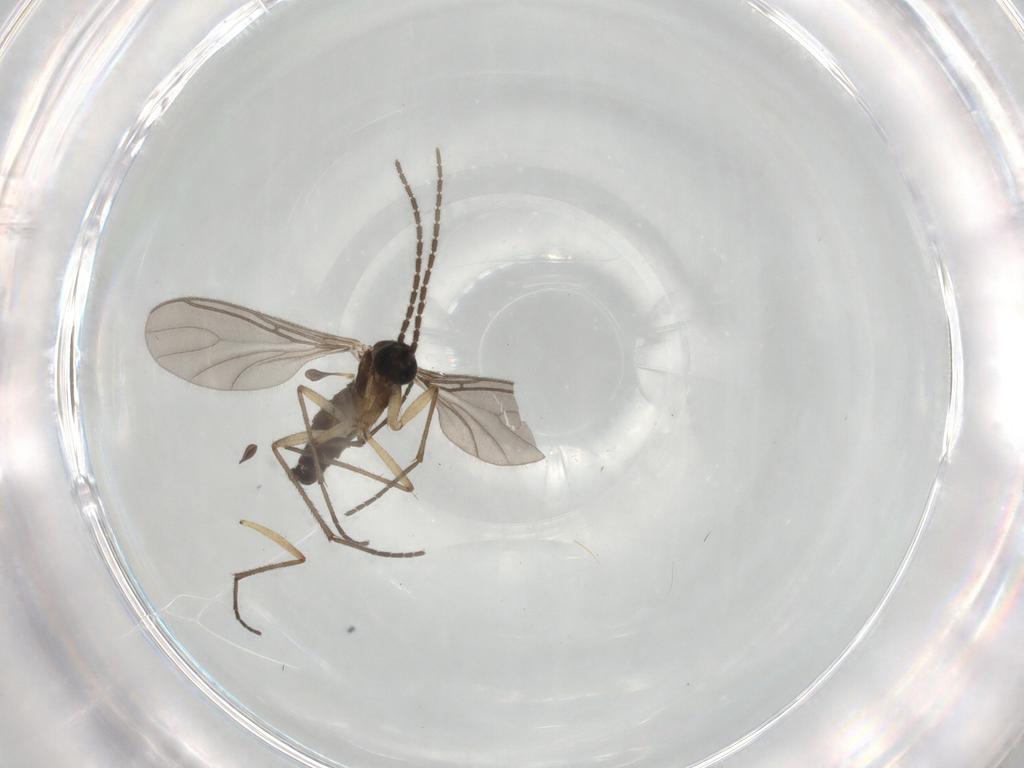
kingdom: Animalia
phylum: Arthropoda
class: Insecta
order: Diptera
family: Sciaridae
